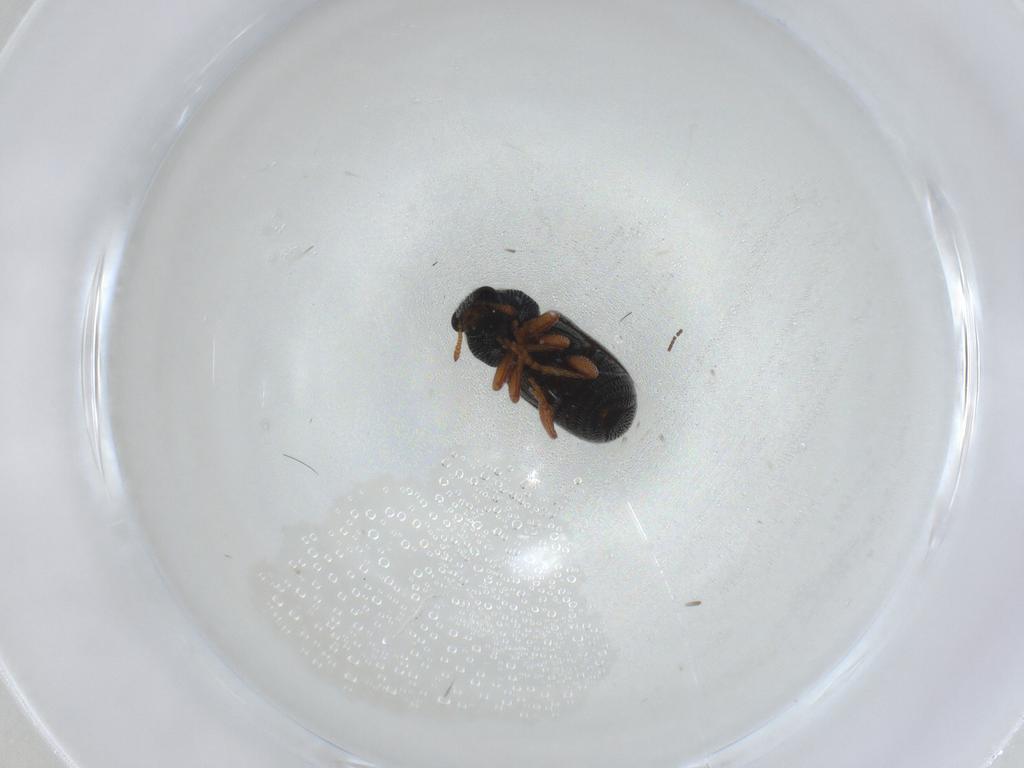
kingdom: Animalia
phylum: Arthropoda
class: Insecta
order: Coleoptera
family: Anthribidae
